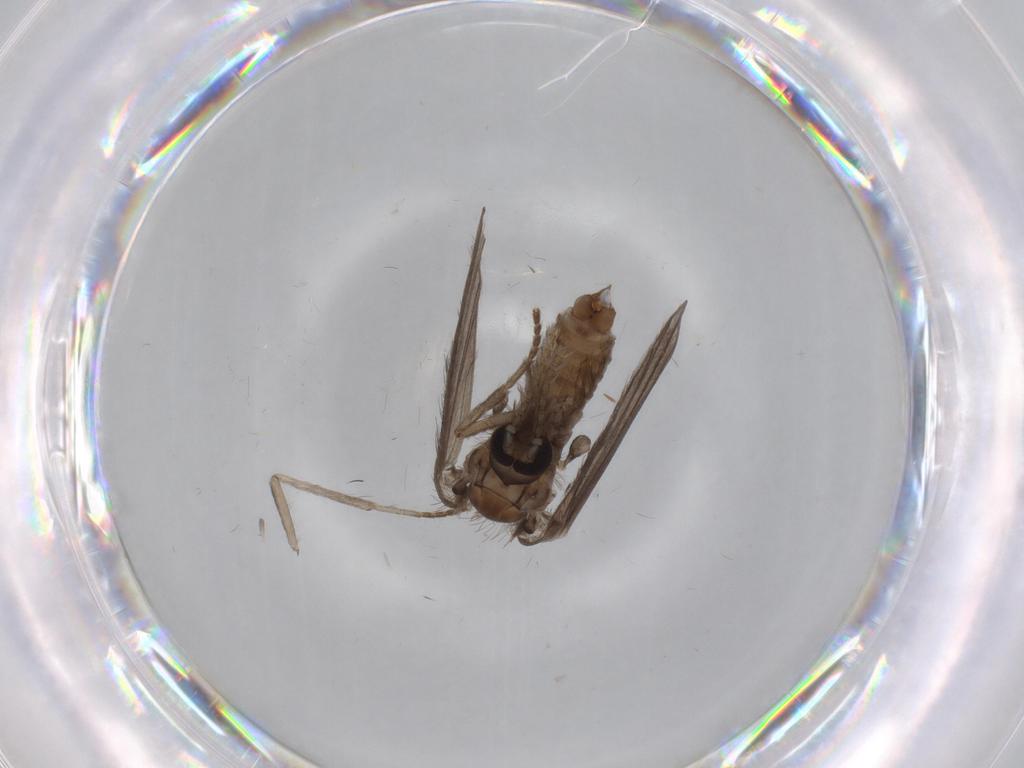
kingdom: Animalia
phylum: Arthropoda
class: Insecta
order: Diptera
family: Psychodidae
